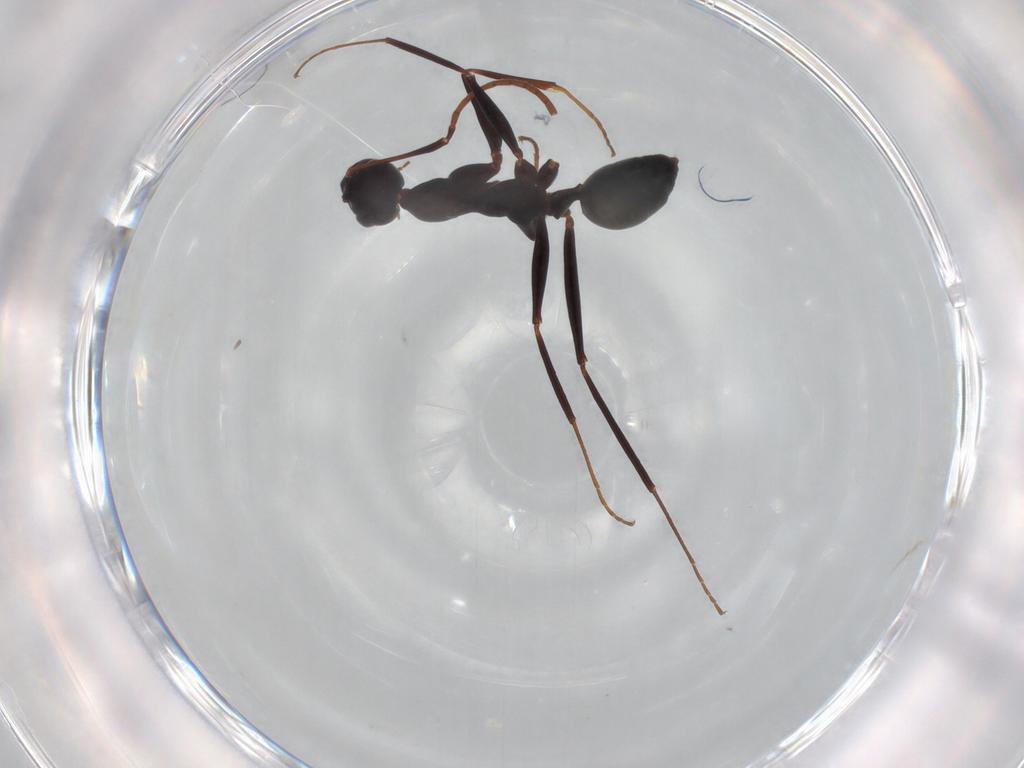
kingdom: Animalia
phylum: Arthropoda
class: Insecta
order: Hymenoptera
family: Formicidae
